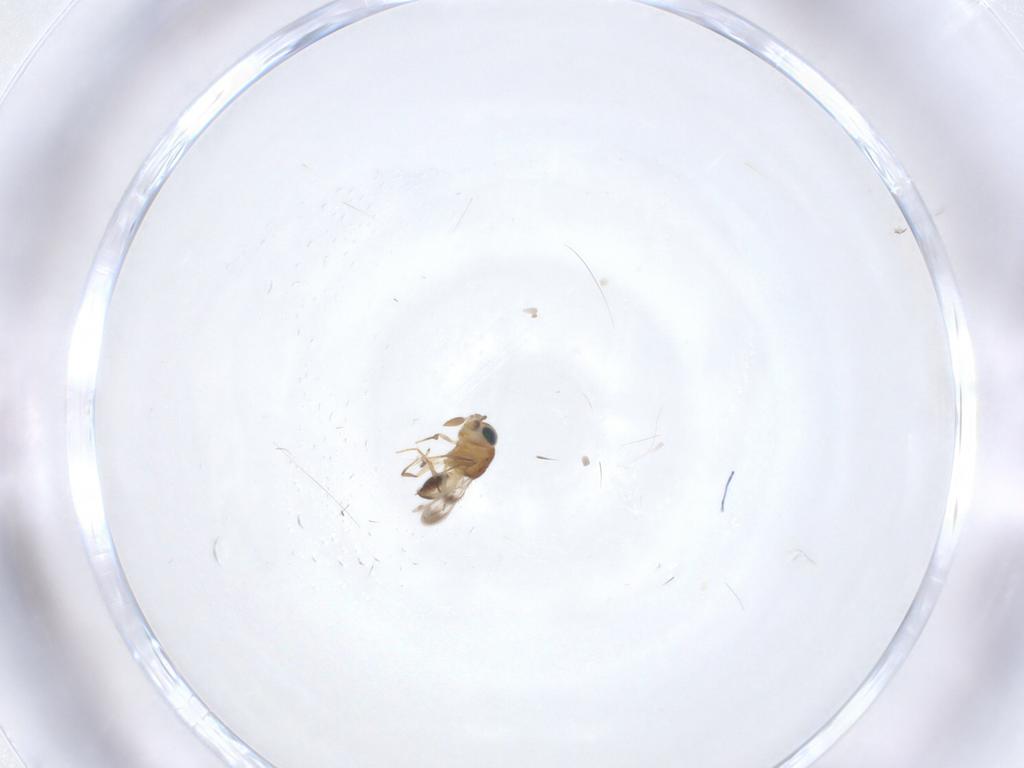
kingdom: Animalia
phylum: Arthropoda
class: Insecta
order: Hymenoptera
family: Scelionidae
